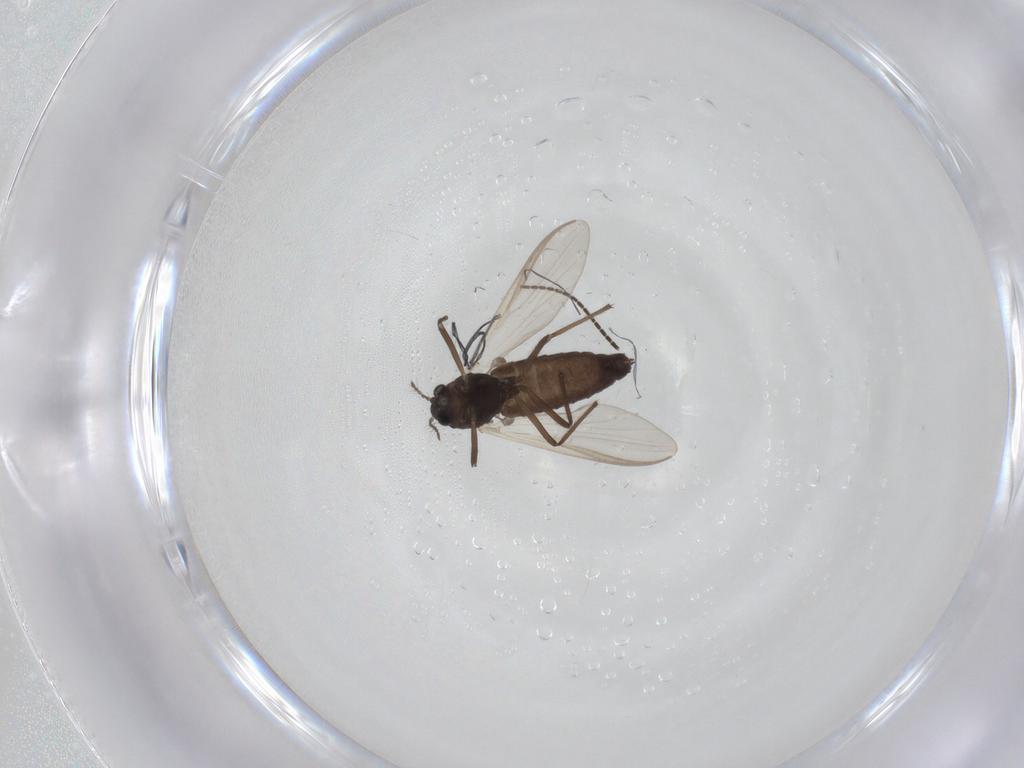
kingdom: Animalia
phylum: Arthropoda
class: Insecta
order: Diptera
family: Sciaridae
